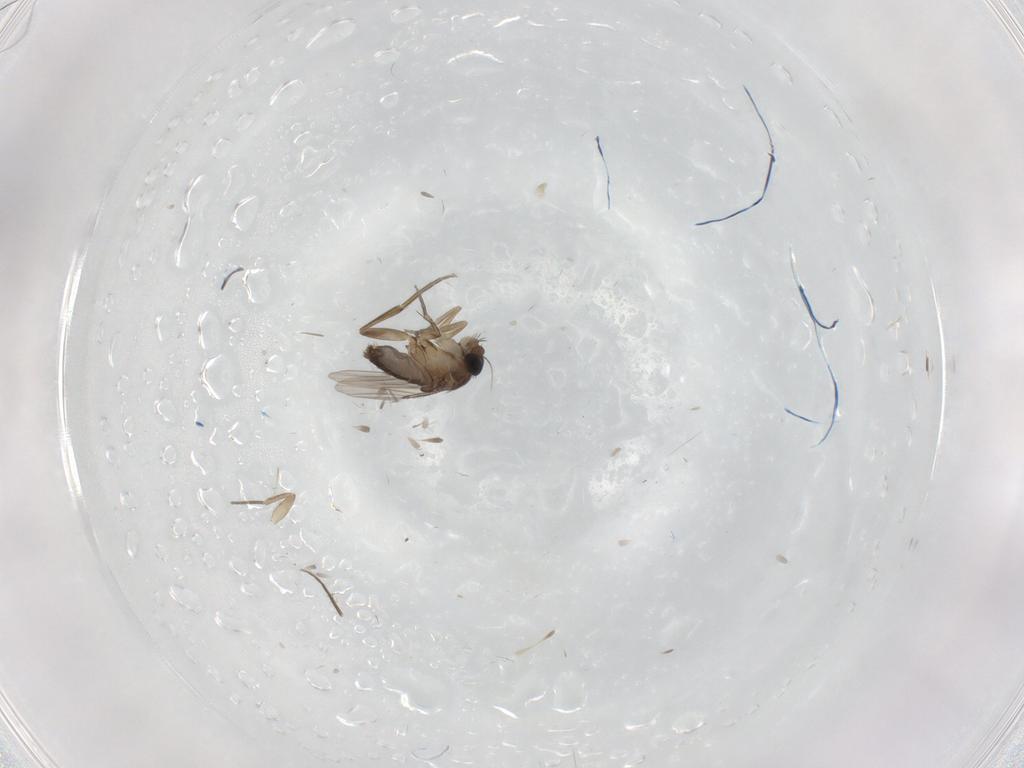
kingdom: Animalia
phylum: Arthropoda
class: Insecta
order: Diptera
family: Phoridae
